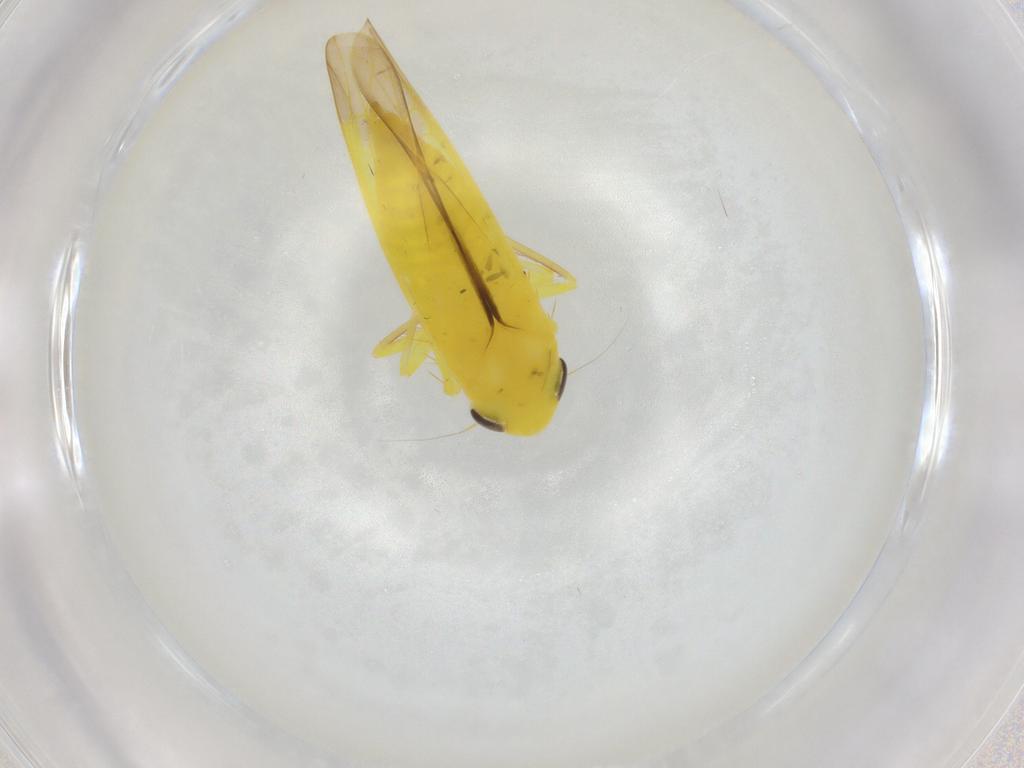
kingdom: Animalia
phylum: Arthropoda
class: Insecta
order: Hemiptera
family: Cicadellidae
